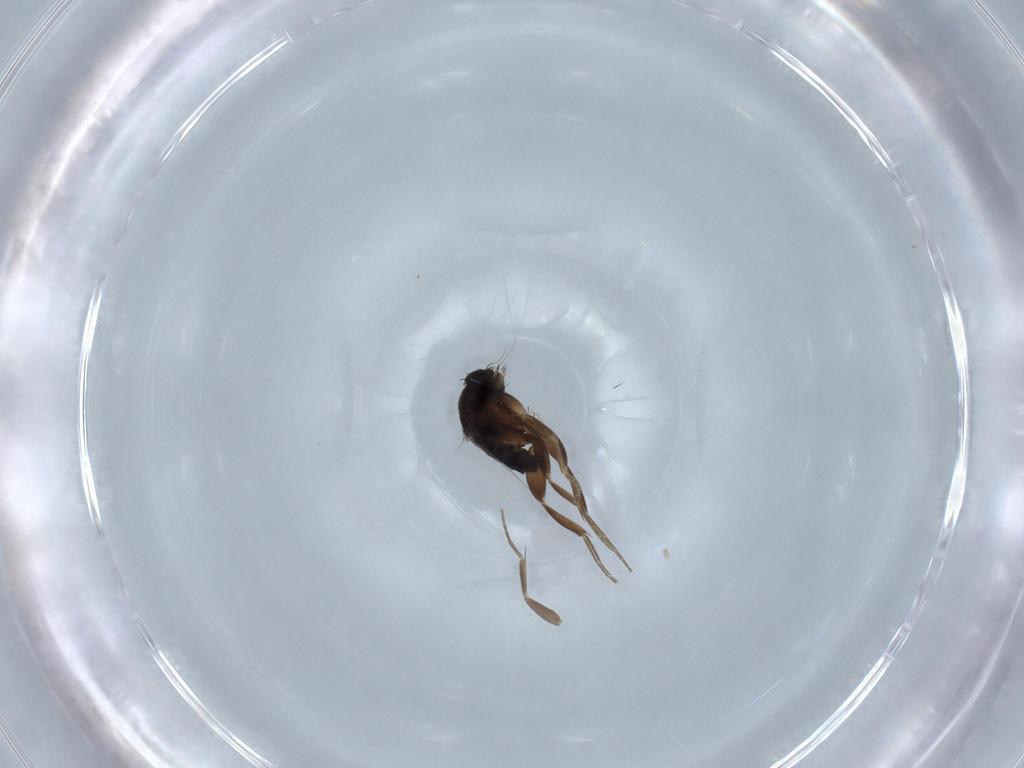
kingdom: Animalia
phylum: Arthropoda
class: Insecta
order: Diptera
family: Phoridae
